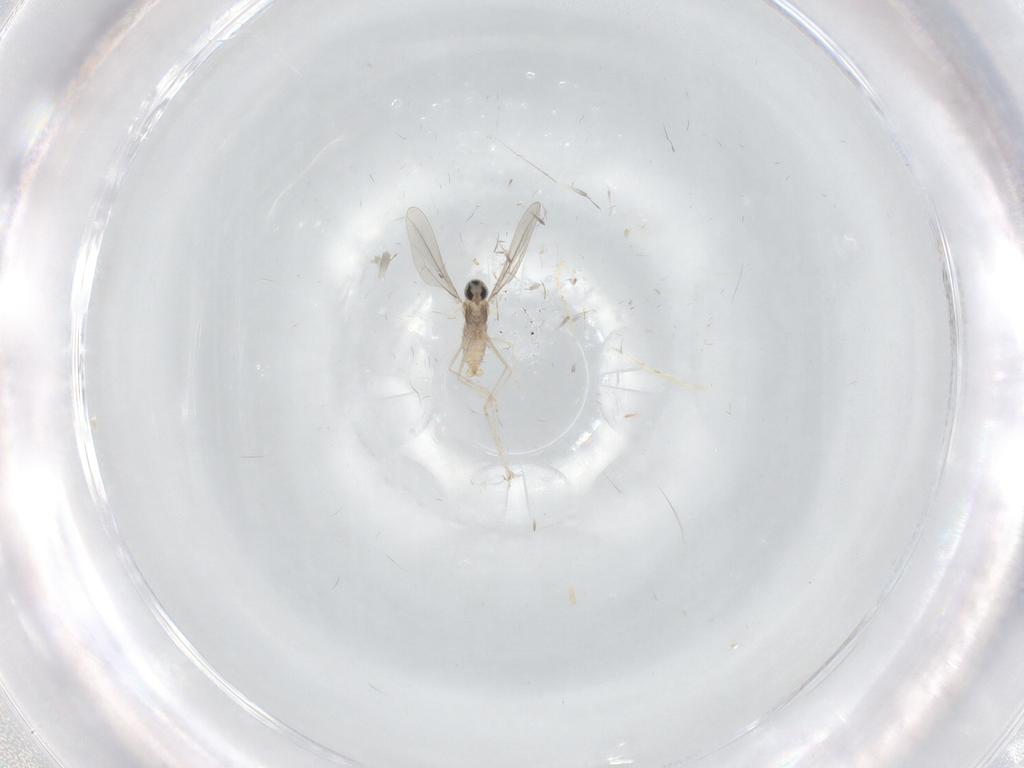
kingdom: Animalia
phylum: Arthropoda
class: Insecta
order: Diptera
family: Cecidomyiidae
